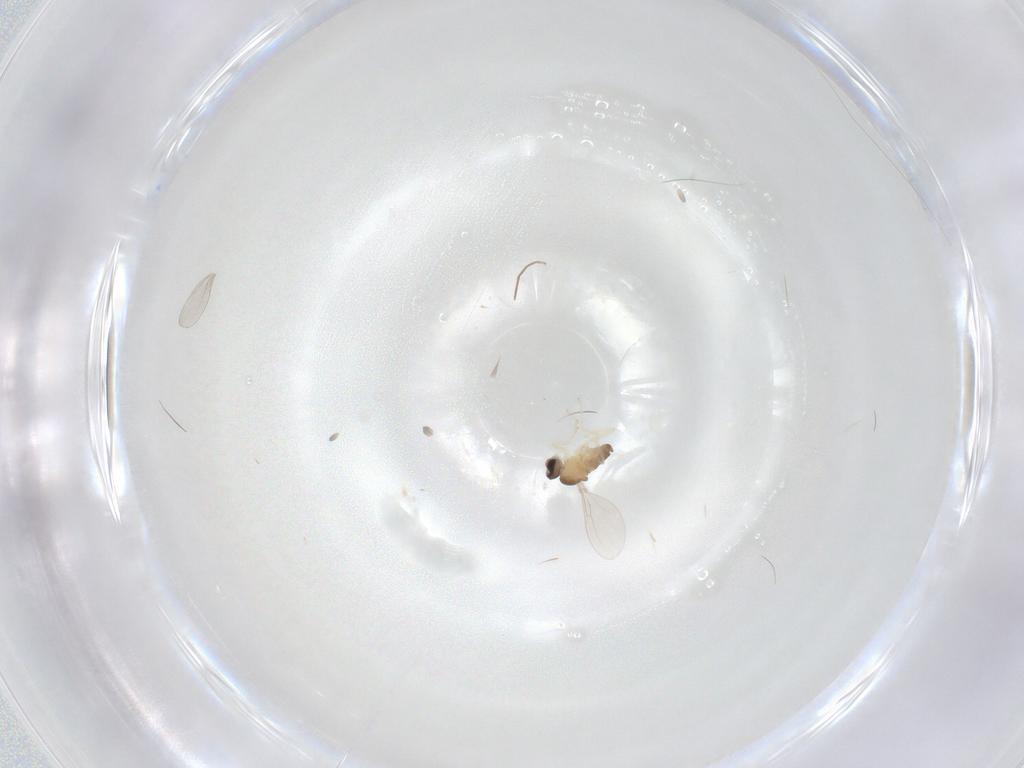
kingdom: Animalia
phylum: Arthropoda
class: Insecta
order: Diptera
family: Cecidomyiidae
